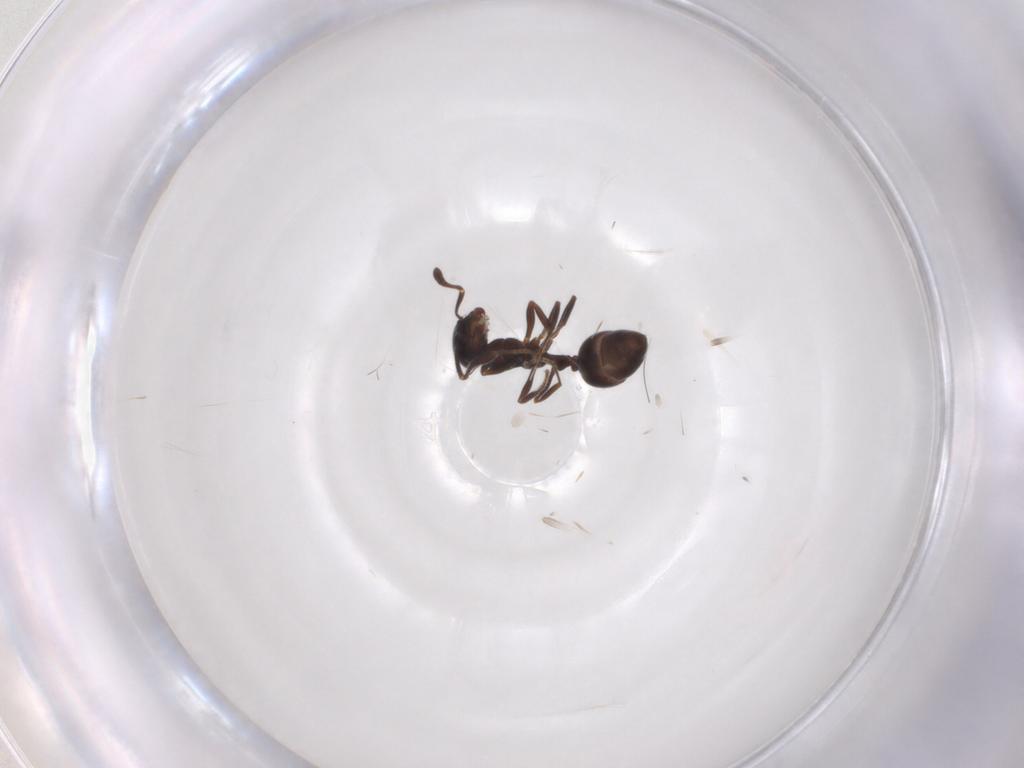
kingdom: Animalia
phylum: Arthropoda
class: Insecta
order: Hymenoptera
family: Formicidae
